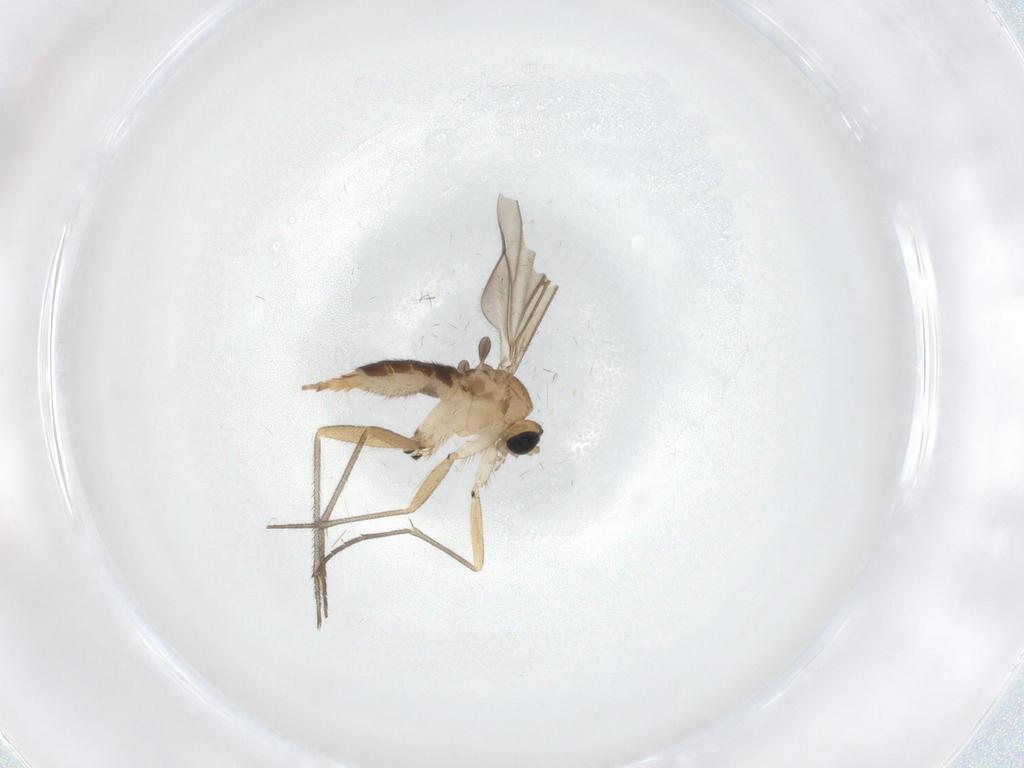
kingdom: Animalia
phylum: Arthropoda
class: Insecta
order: Diptera
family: Sciaridae
